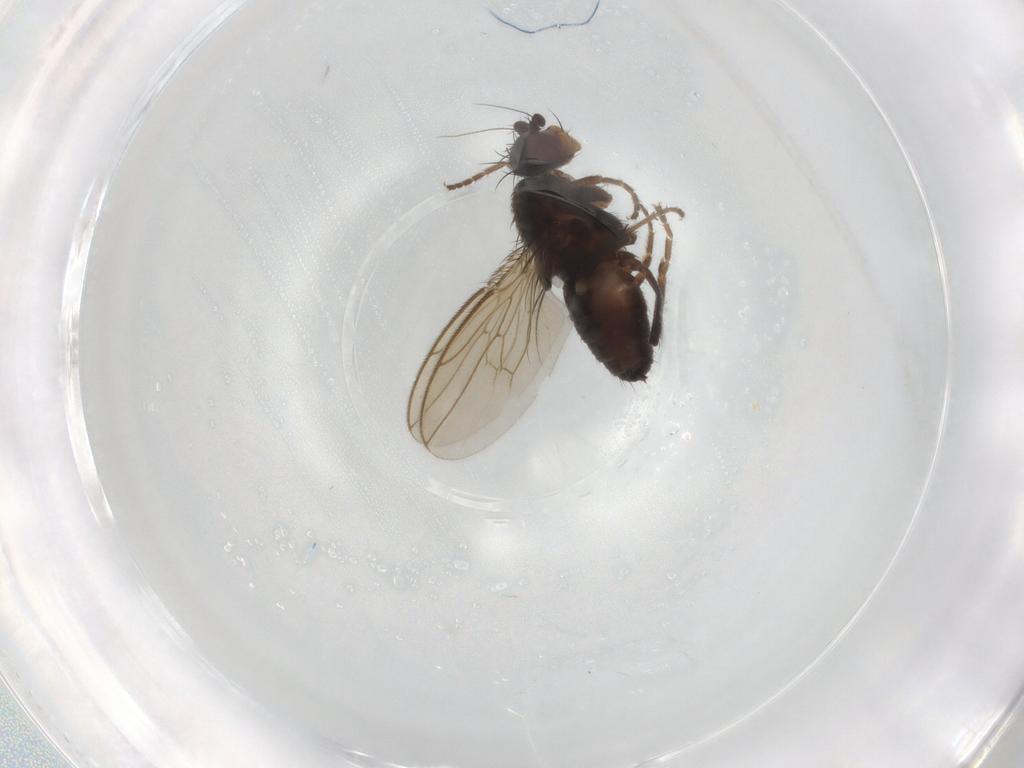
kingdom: Animalia
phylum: Arthropoda
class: Insecta
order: Diptera
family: Sphaeroceridae
